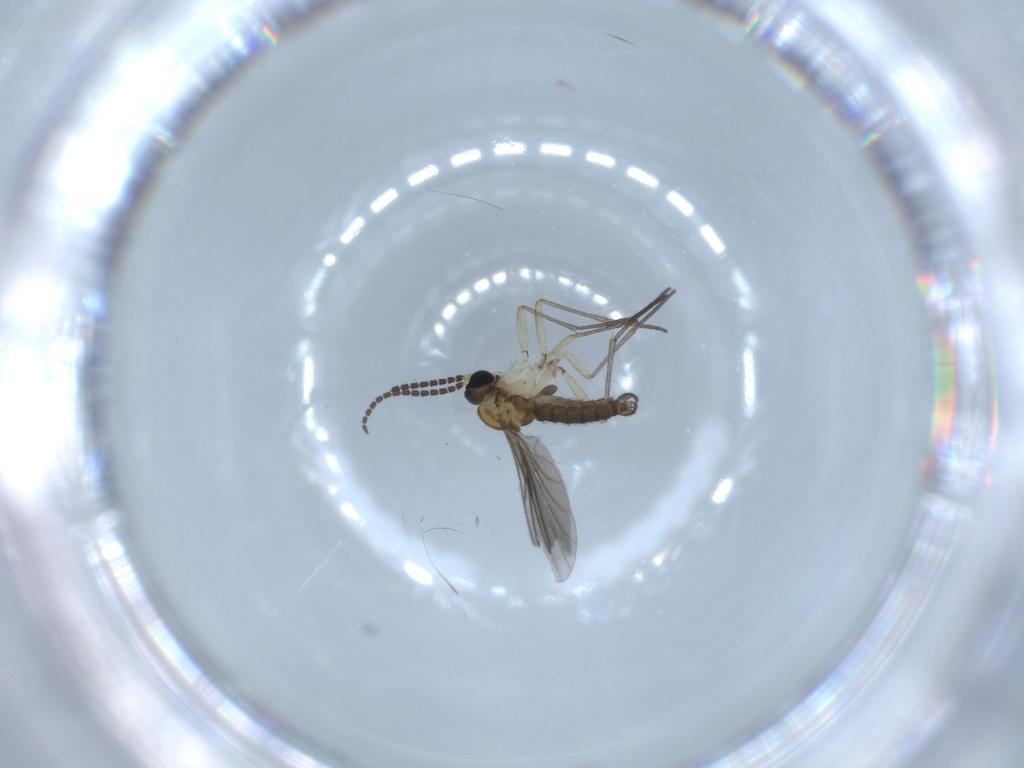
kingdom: Animalia
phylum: Arthropoda
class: Insecta
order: Diptera
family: Sciaridae
